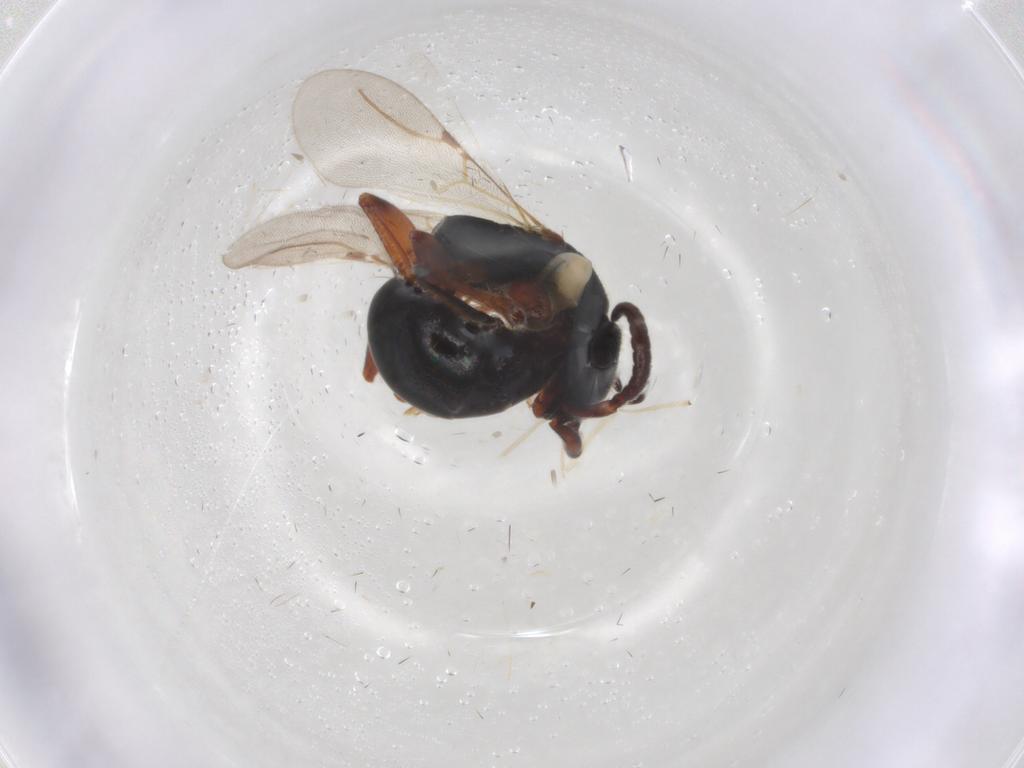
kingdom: Animalia
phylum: Arthropoda
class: Insecta
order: Hymenoptera
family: Bethylidae
